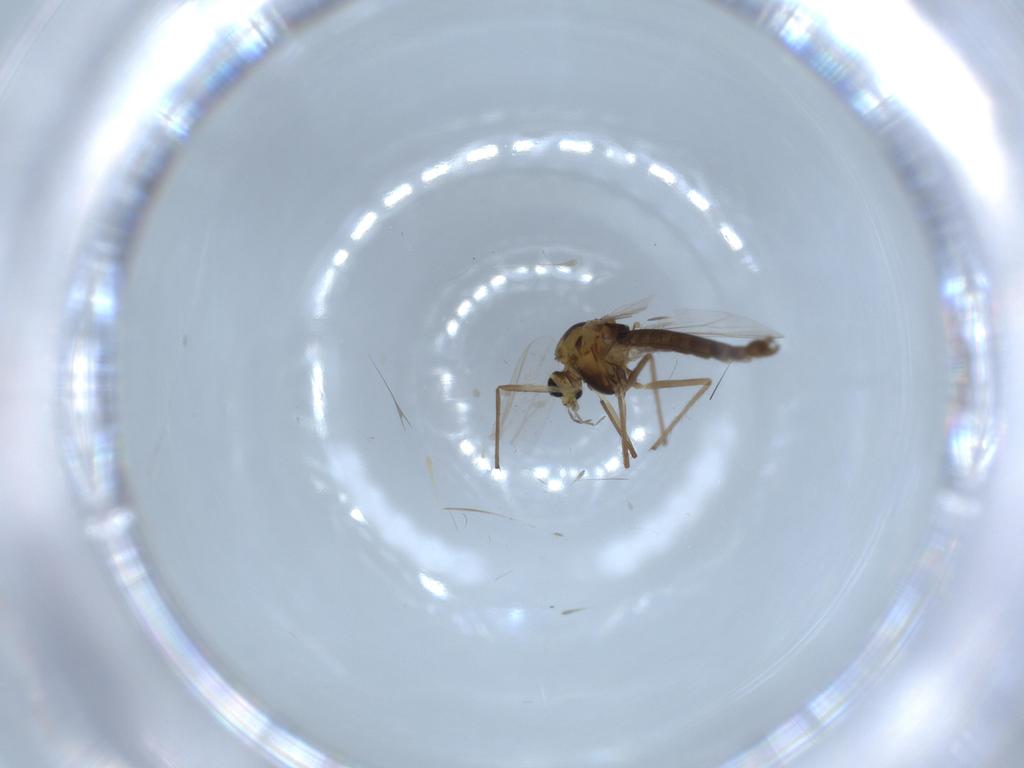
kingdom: Animalia
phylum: Arthropoda
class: Insecta
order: Diptera
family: Chironomidae
